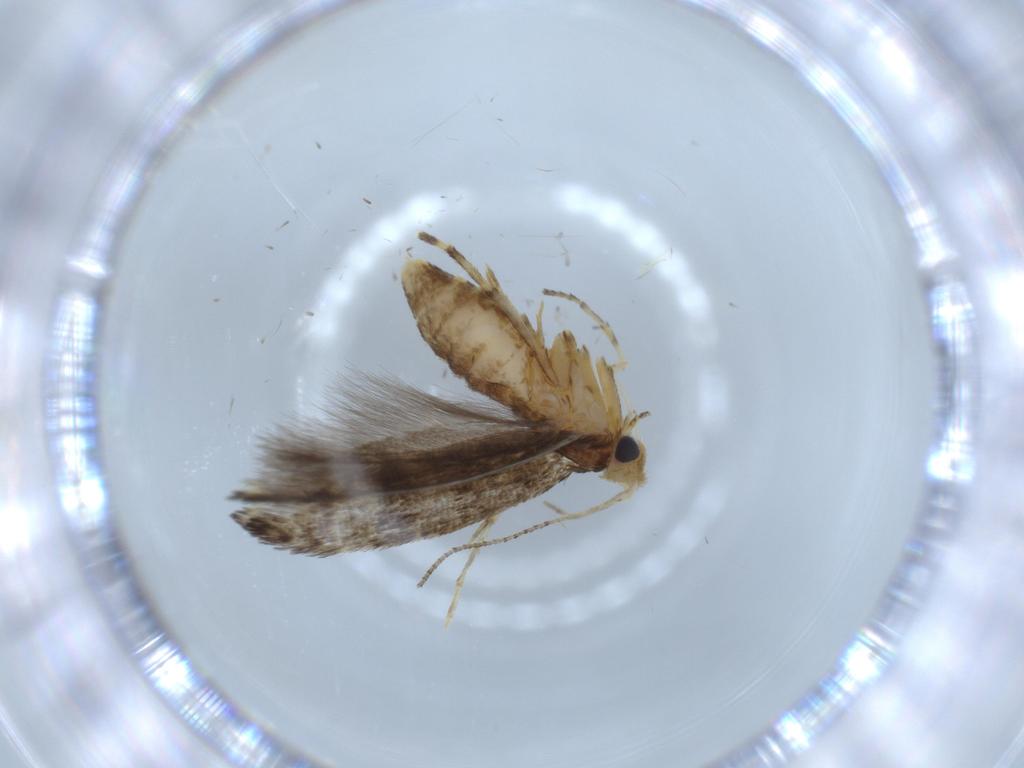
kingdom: Animalia
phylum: Arthropoda
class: Insecta
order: Lepidoptera
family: Argyresthiidae
